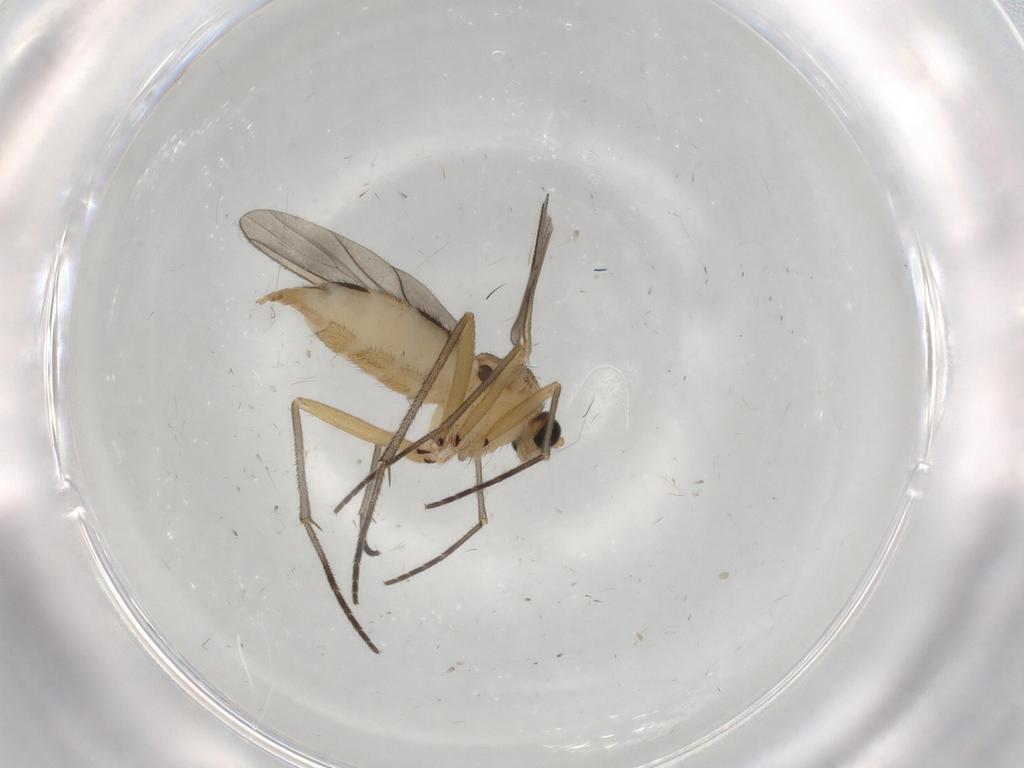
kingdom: Animalia
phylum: Arthropoda
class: Insecta
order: Diptera
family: Sciaridae
